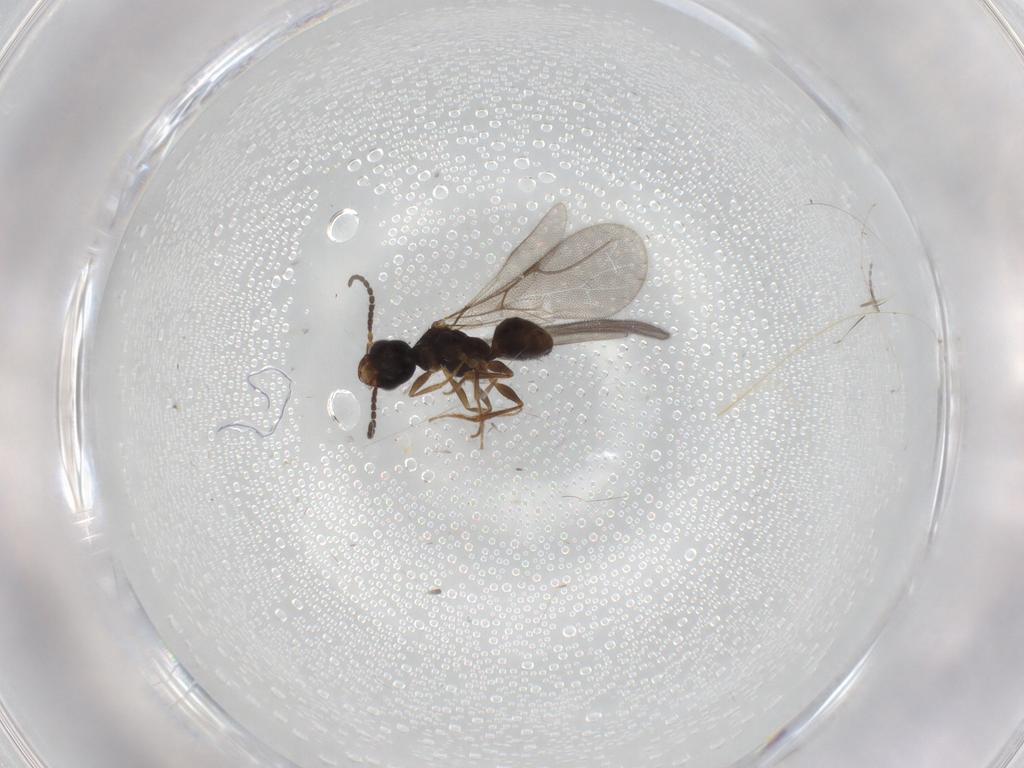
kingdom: Animalia
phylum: Arthropoda
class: Insecta
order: Hymenoptera
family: Bethylidae
